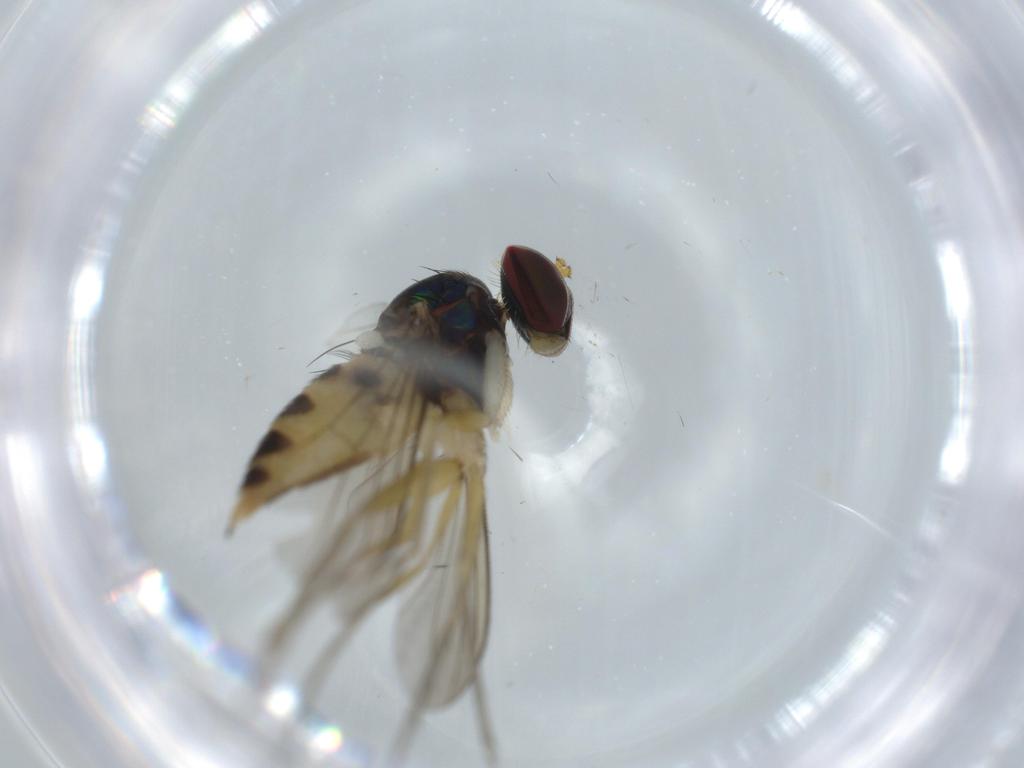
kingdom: Animalia
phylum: Arthropoda
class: Insecta
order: Diptera
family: Dolichopodidae
